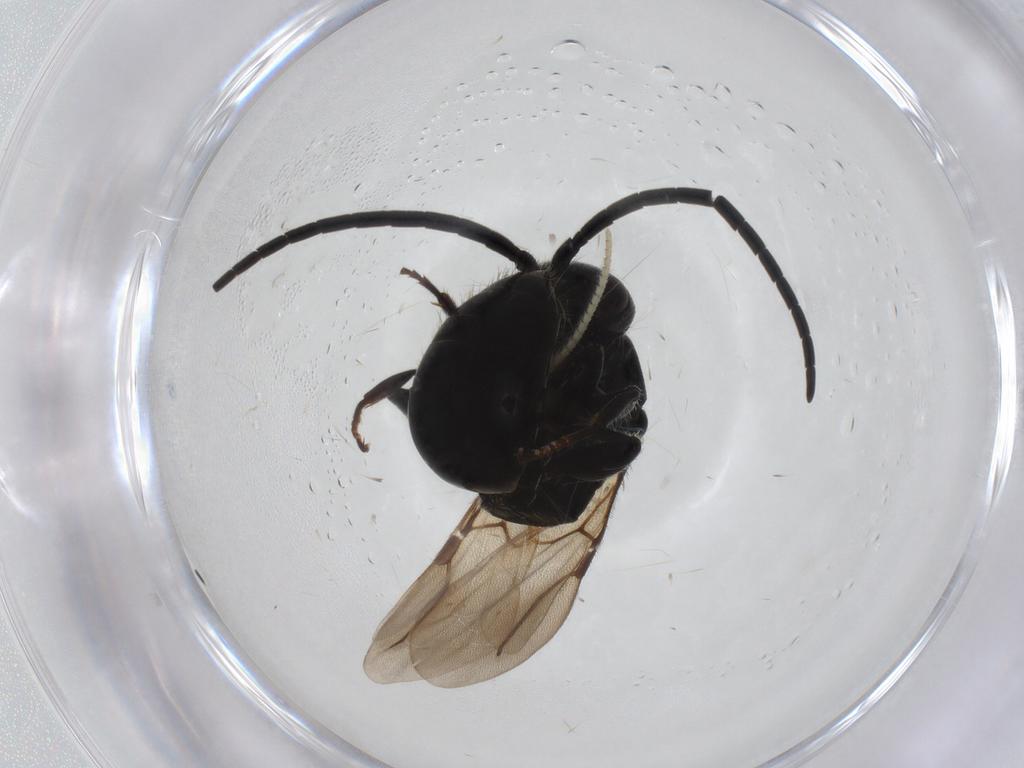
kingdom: Animalia
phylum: Arthropoda
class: Insecta
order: Hymenoptera
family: Bethylidae
